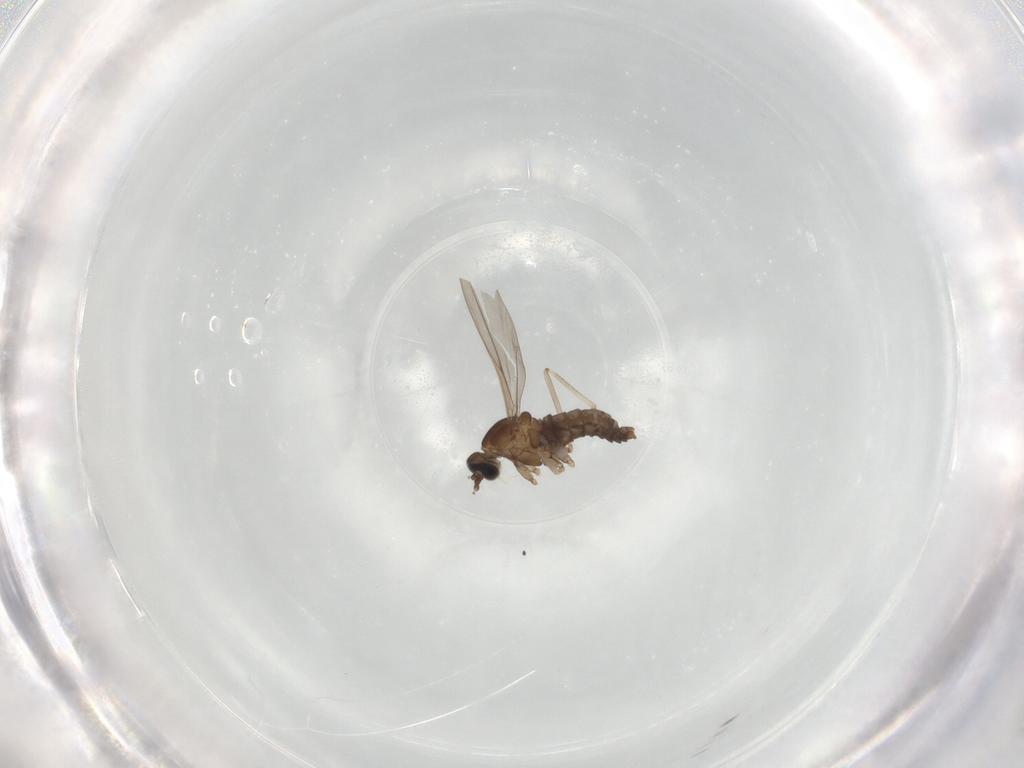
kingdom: Animalia
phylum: Arthropoda
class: Insecta
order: Diptera
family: Cecidomyiidae
